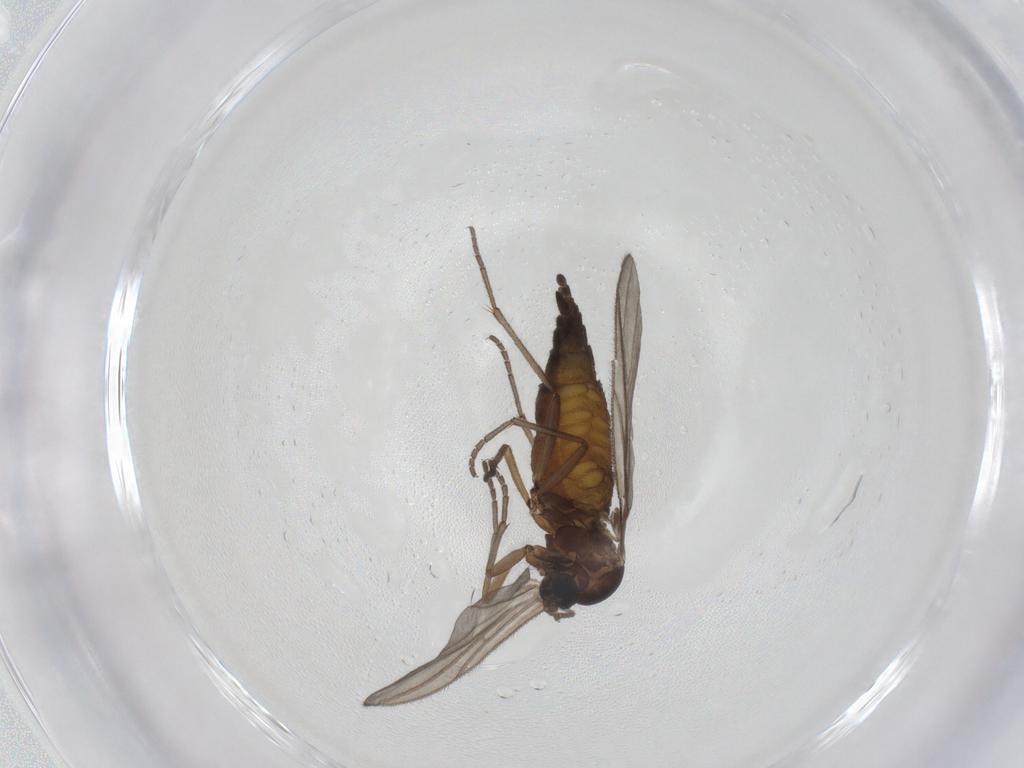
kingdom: Animalia
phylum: Arthropoda
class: Insecta
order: Diptera
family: Sciaridae
